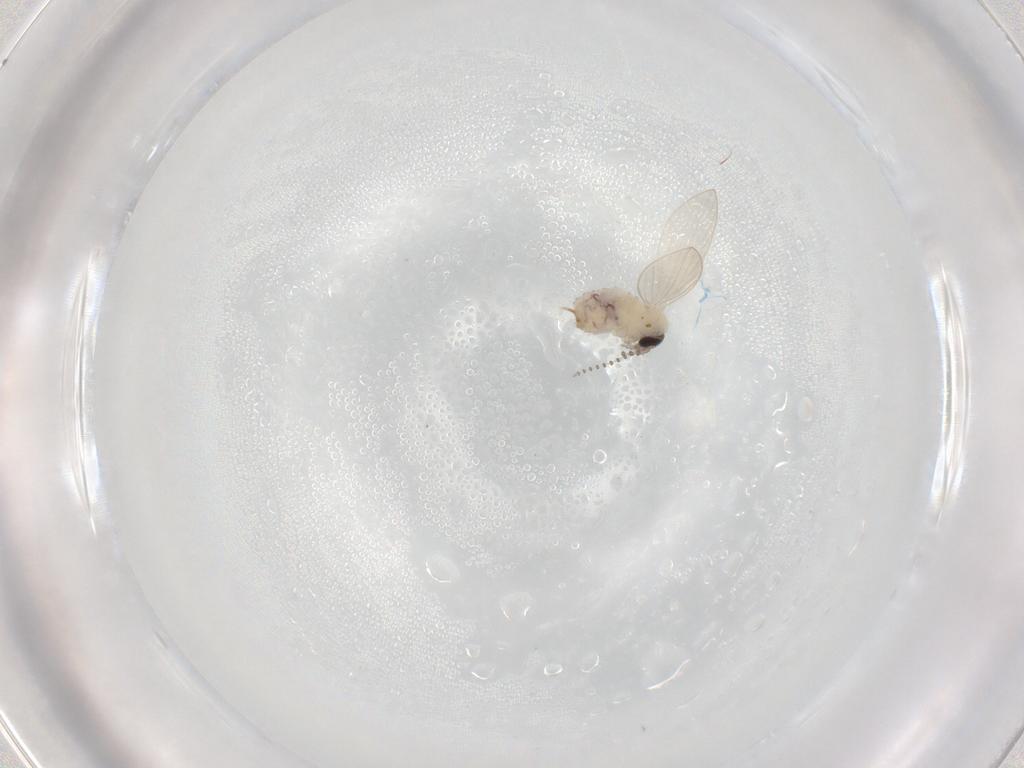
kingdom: Animalia
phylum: Arthropoda
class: Insecta
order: Diptera
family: Psychodidae
